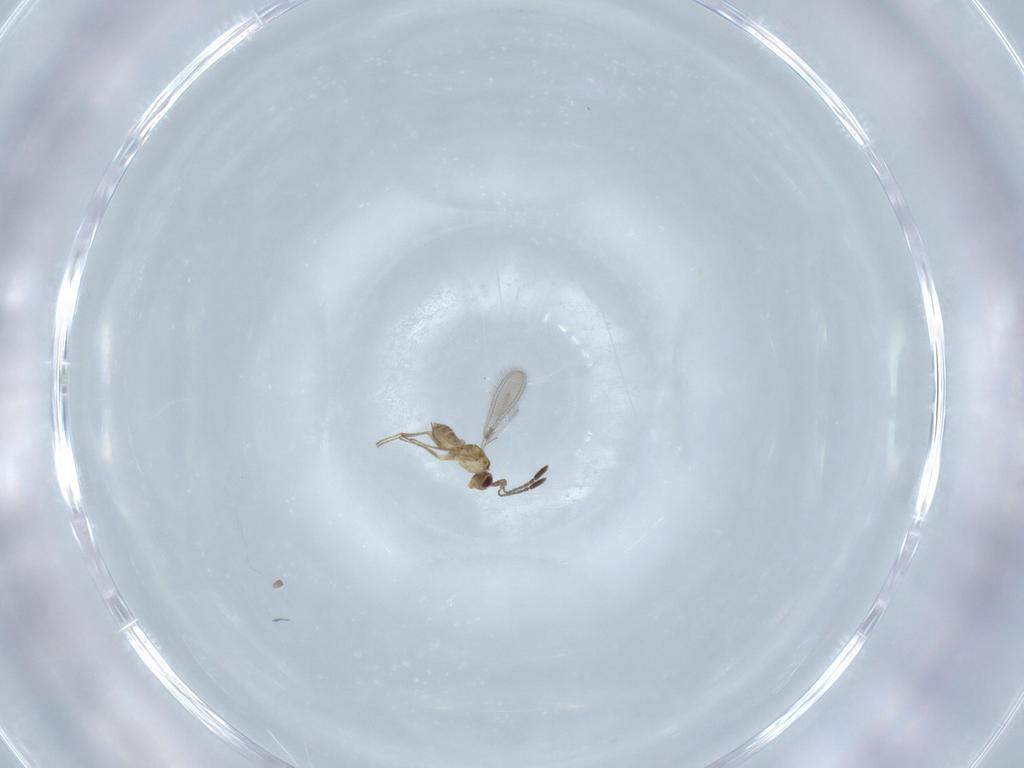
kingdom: Animalia
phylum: Arthropoda
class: Insecta
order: Hymenoptera
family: Mymaridae
